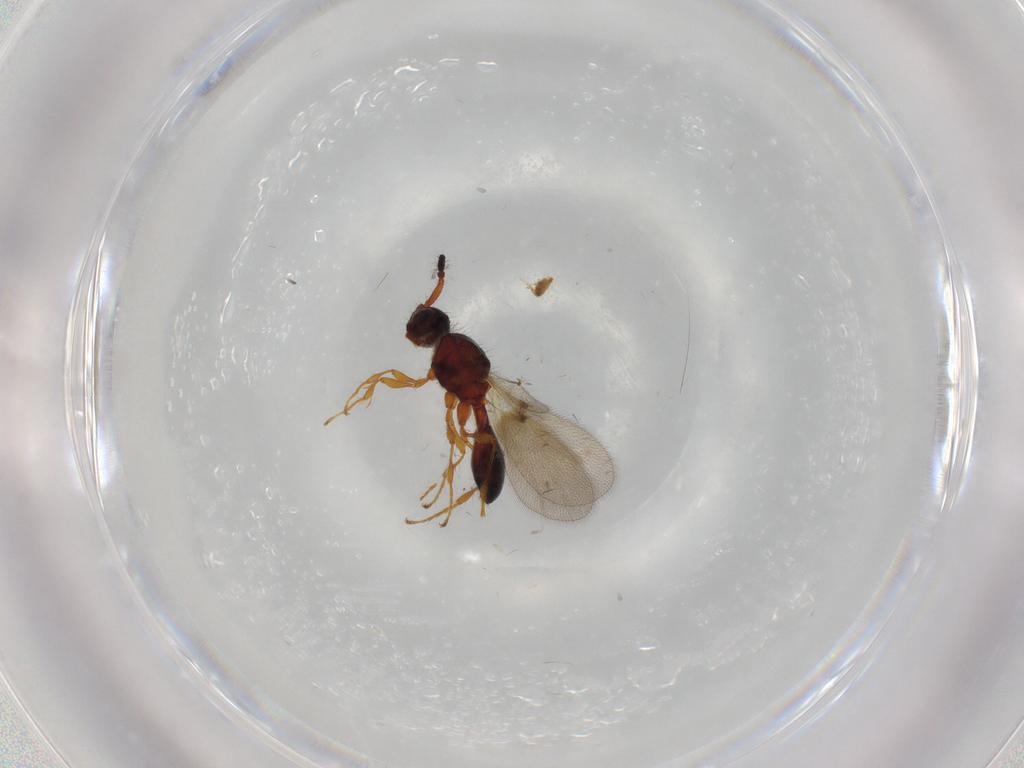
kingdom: Animalia
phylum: Arthropoda
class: Insecta
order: Hymenoptera
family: Diapriidae
